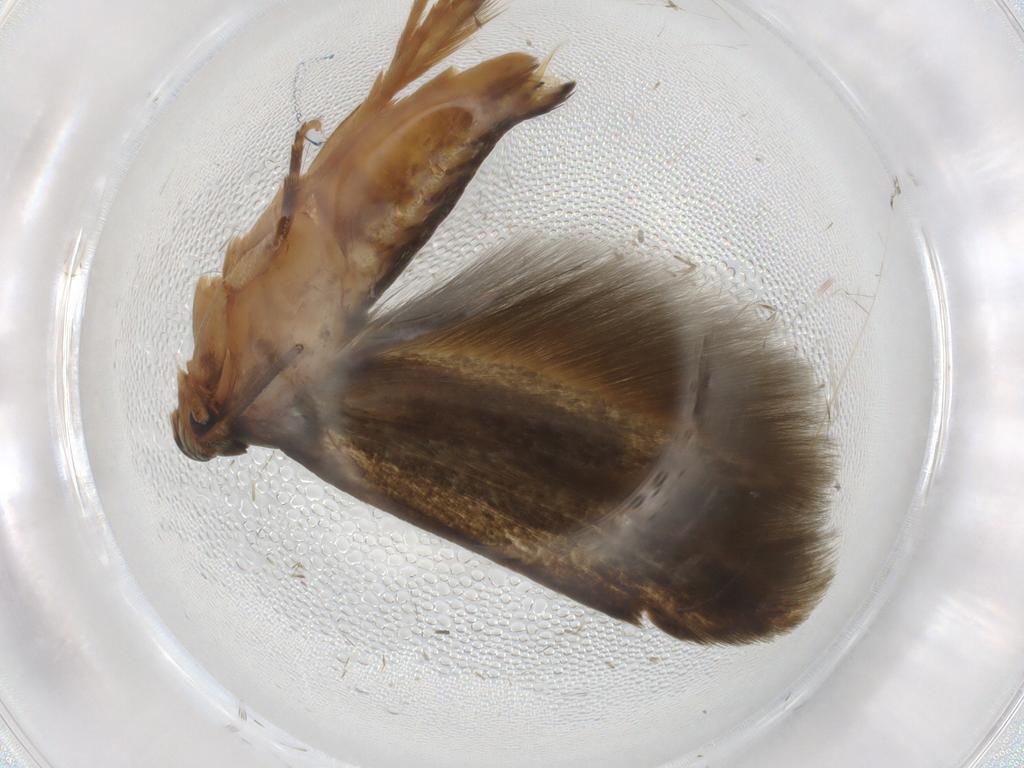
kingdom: Animalia
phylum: Arthropoda
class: Insecta
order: Lepidoptera
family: Tineidae
